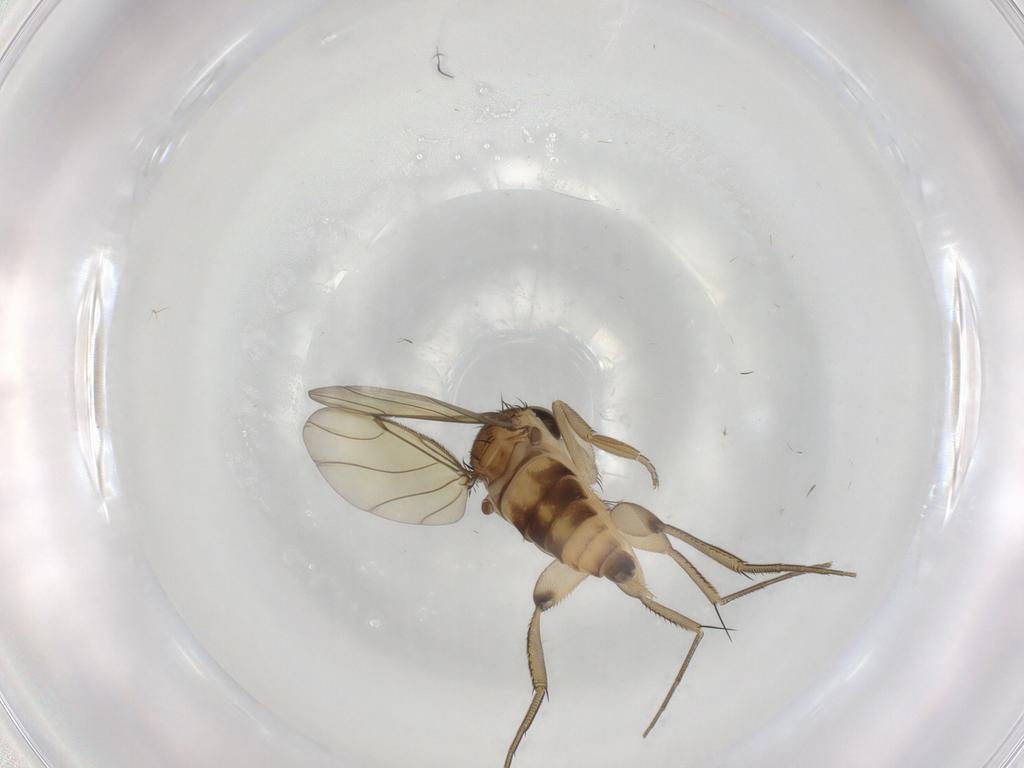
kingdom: Animalia
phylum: Arthropoda
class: Insecta
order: Diptera
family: Phoridae
